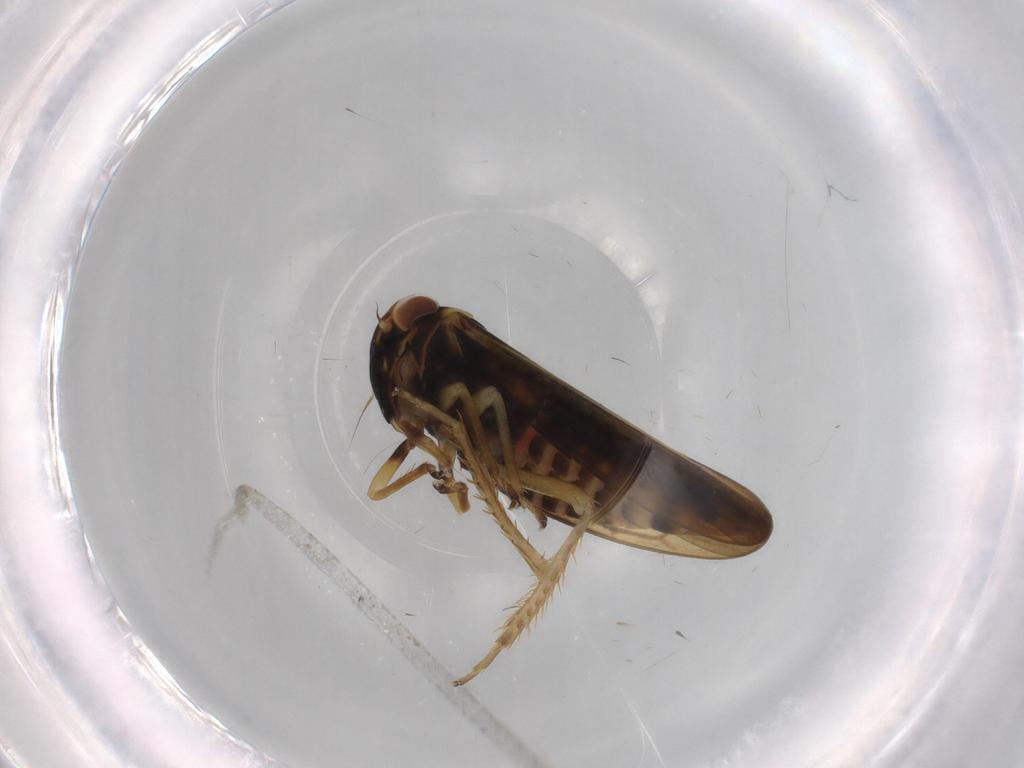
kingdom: Animalia
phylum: Arthropoda
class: Insecta
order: Hemiptera
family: Cicadellidae
